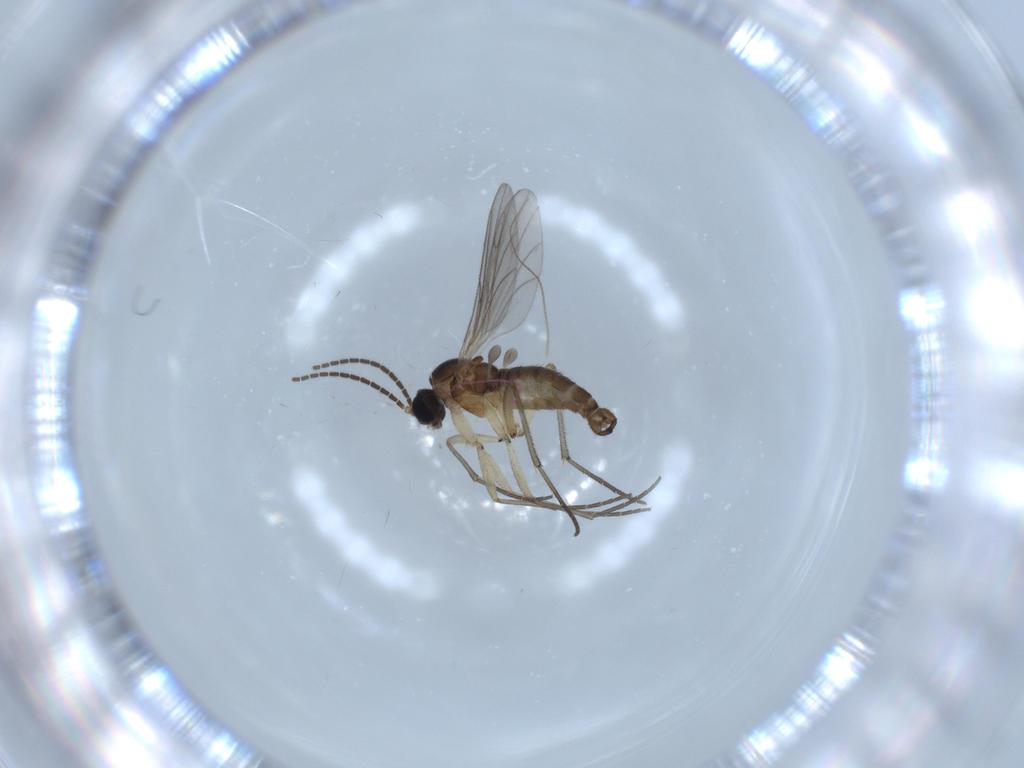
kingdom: Animalia
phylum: Arthropoda
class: Insecta
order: Diptera
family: Sciaridae
